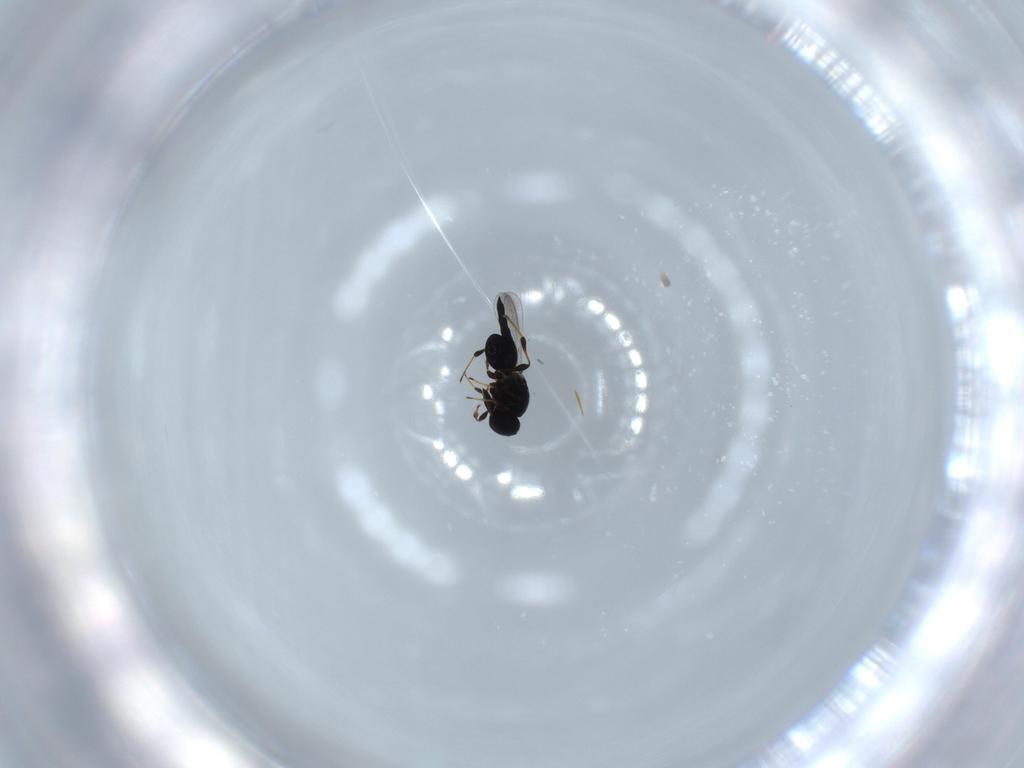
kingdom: Animalia
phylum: Arthropoda
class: Insecta
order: Hymenoptera
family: Platygastridae
